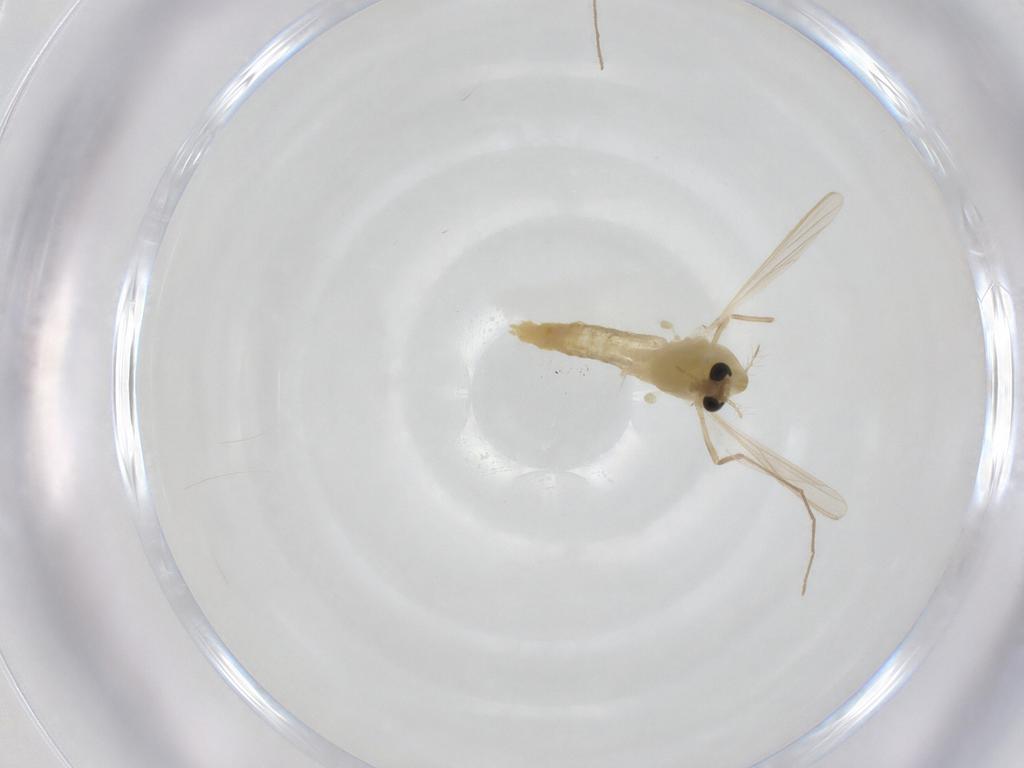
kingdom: Animalia
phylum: Arthropoda
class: Insecta
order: Diptera
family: Chironomidae
